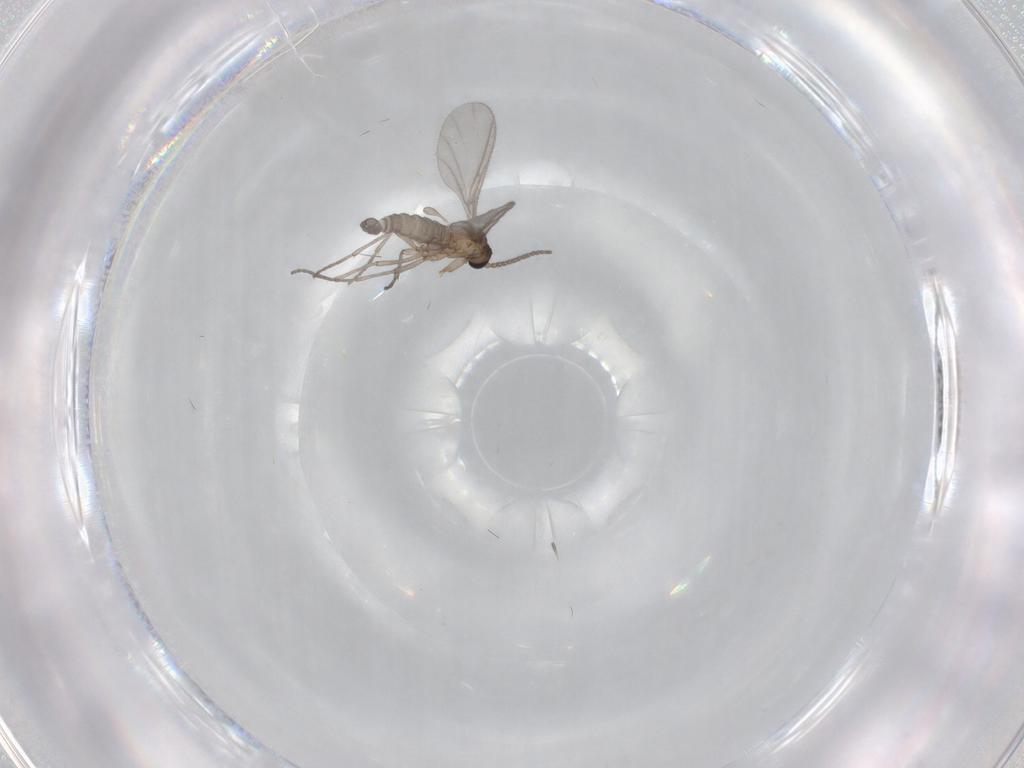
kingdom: Animalia
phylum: Arthropoda
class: Insecta
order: Diptera
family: Sciaridae
